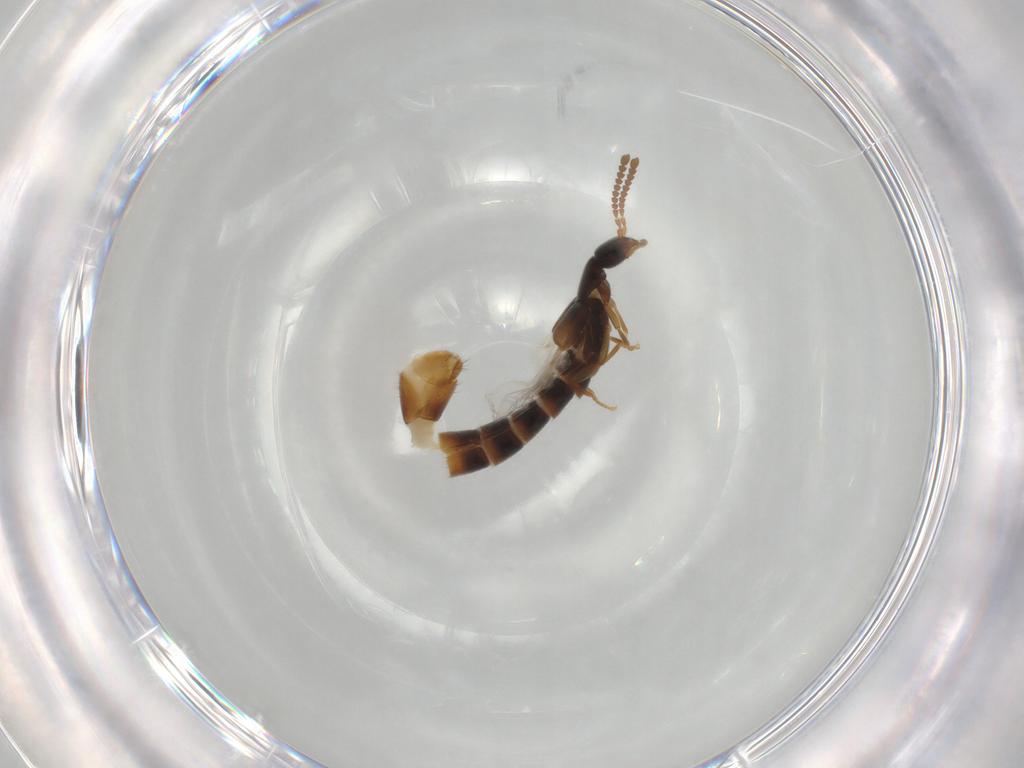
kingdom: Animalia
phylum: Arthropoda
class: Insecta
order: Coleoptera
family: Staphylinidae
